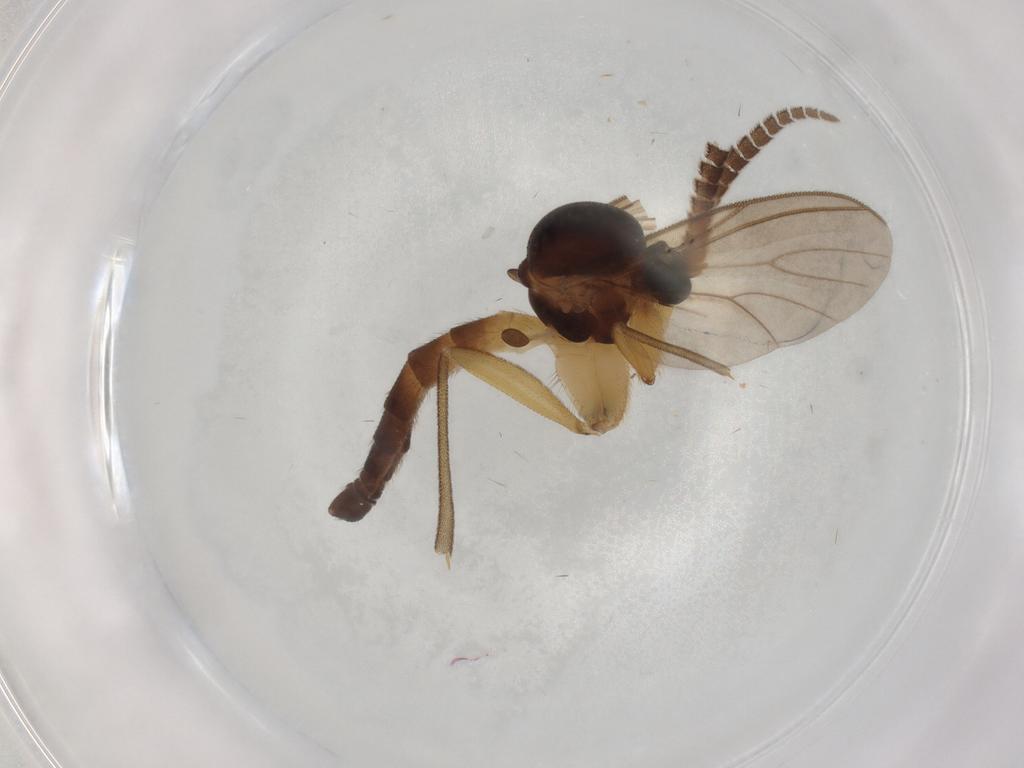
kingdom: Animalia
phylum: Arthropoda
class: Insecta
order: Diptera
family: Mycetophilidae
